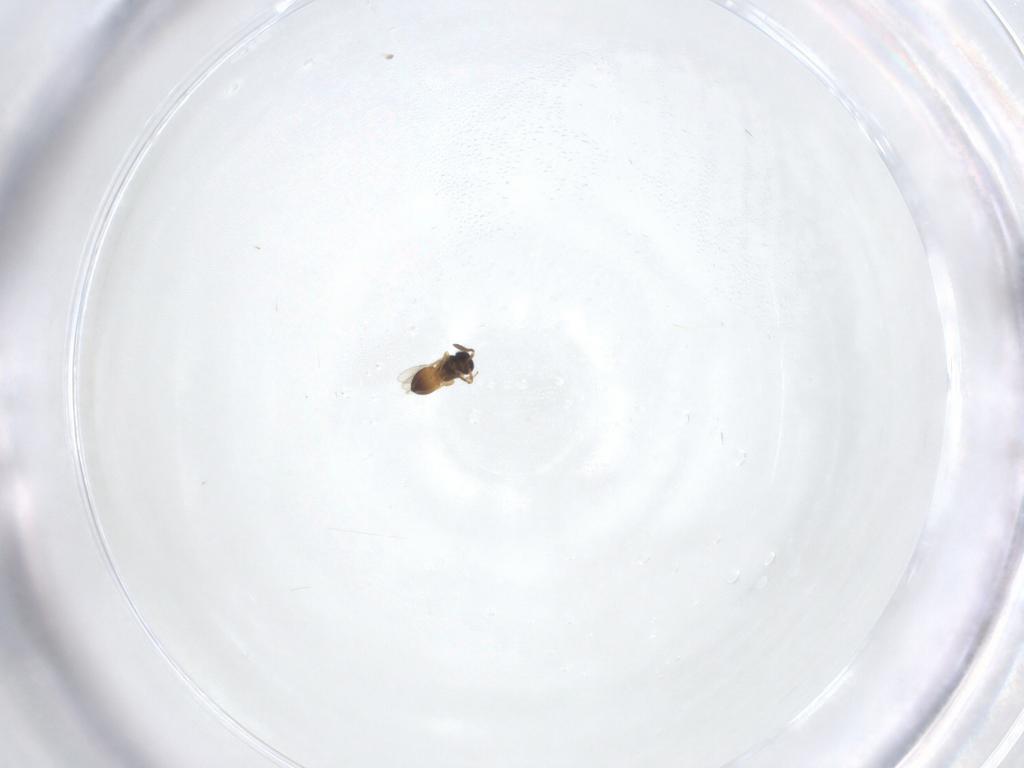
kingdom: Animalia
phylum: Arthropoda
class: Insecta
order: Hymenoptera
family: Scelionidae
